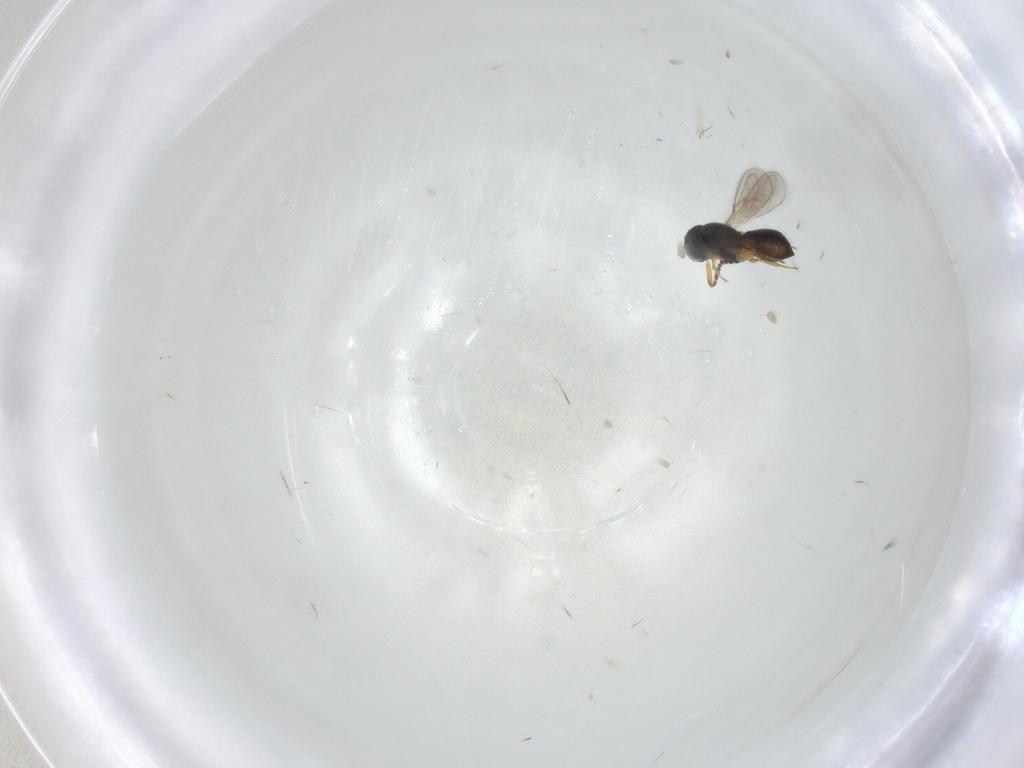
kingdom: Animalia
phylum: Arthropoda
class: Insecta
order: Hymenoptera
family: Scelionidae
